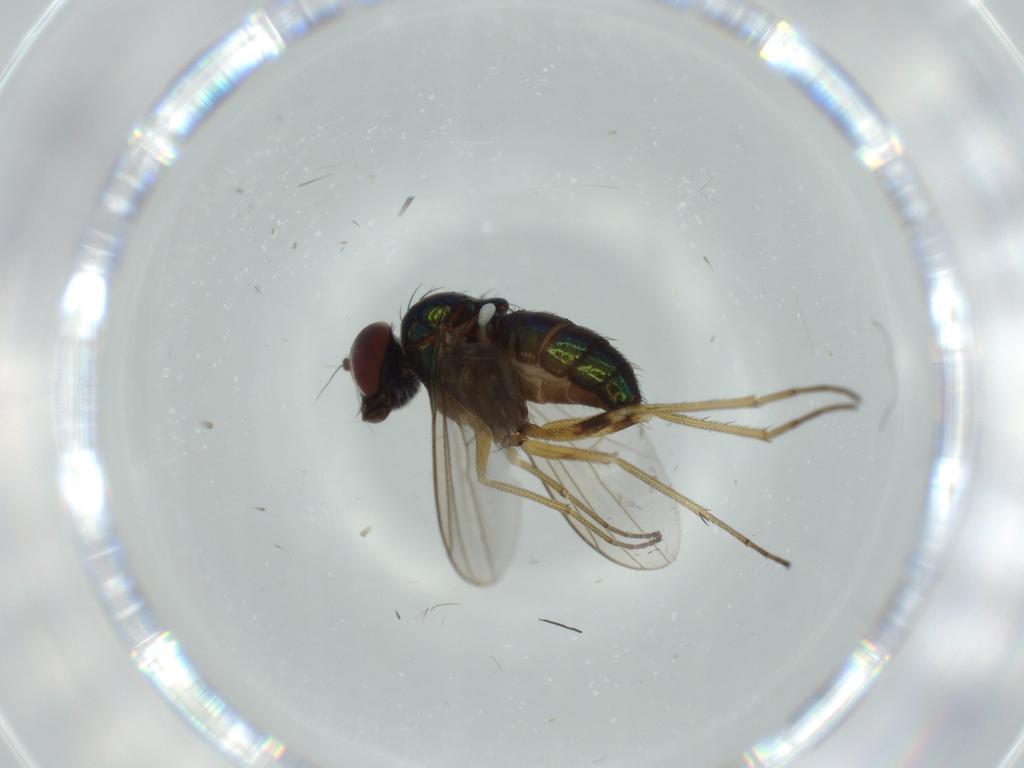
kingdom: Animalia
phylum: Arthropoda
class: Insecta
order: Diptera
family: Dolichopodidae
